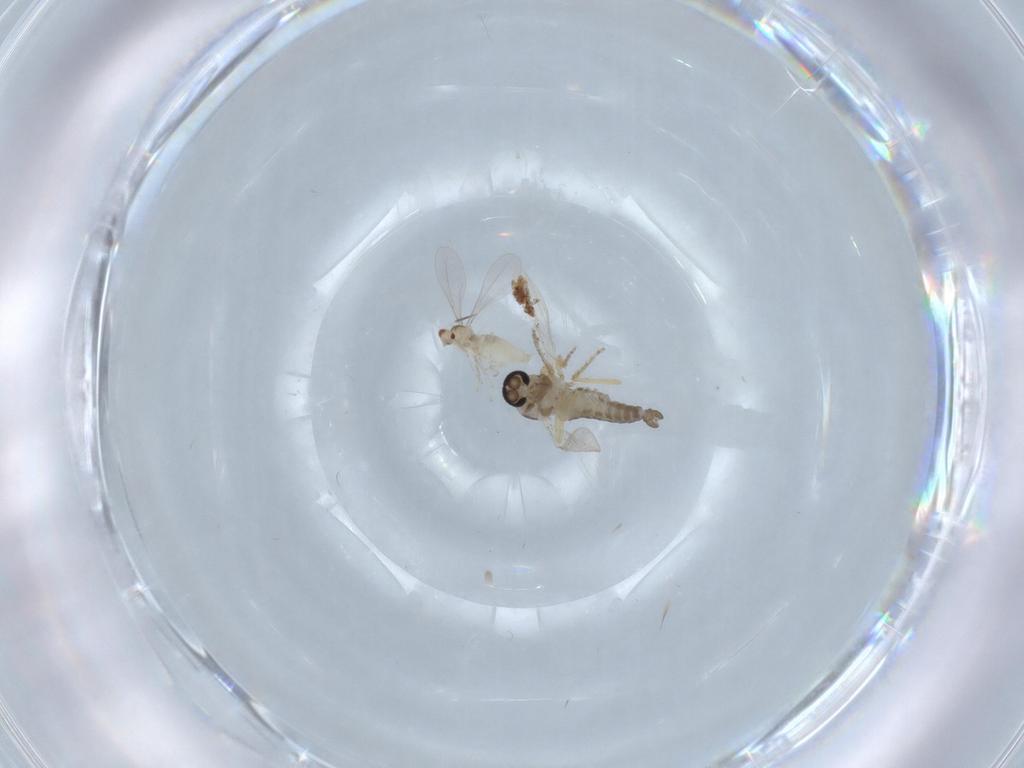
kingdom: Animalia
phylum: Arthropoda
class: Insecta
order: Diptera
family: Ceratopogonidae
